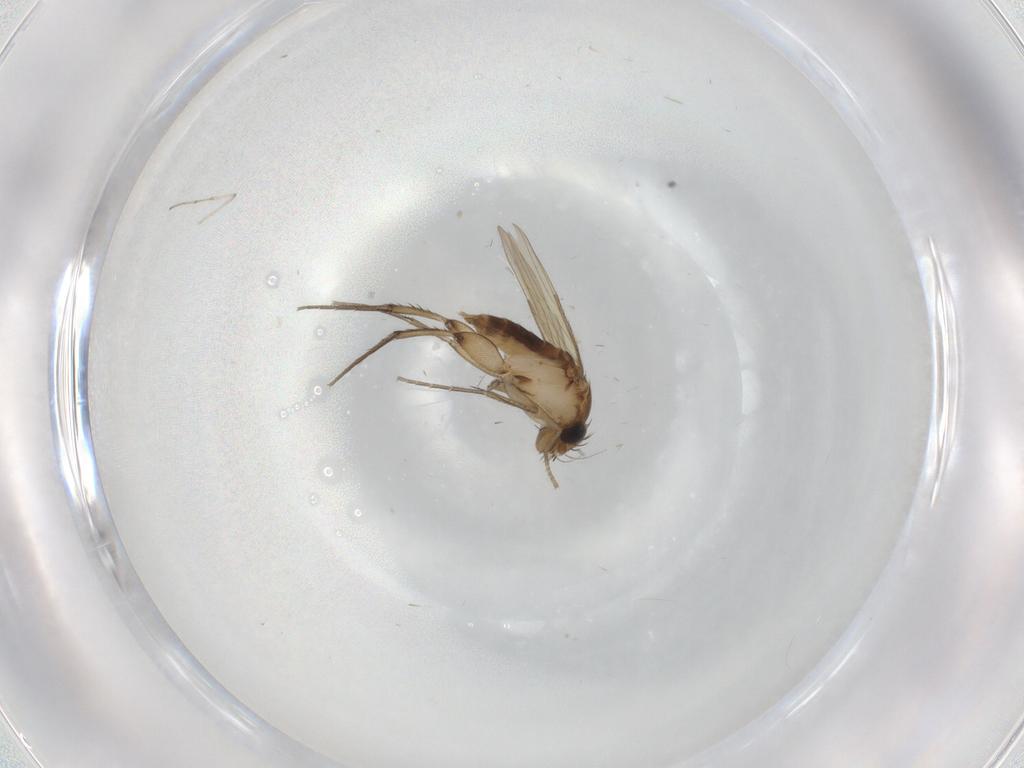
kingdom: Animalia
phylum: Arthropoda
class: Insecta
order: Diptera
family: Phoridae
